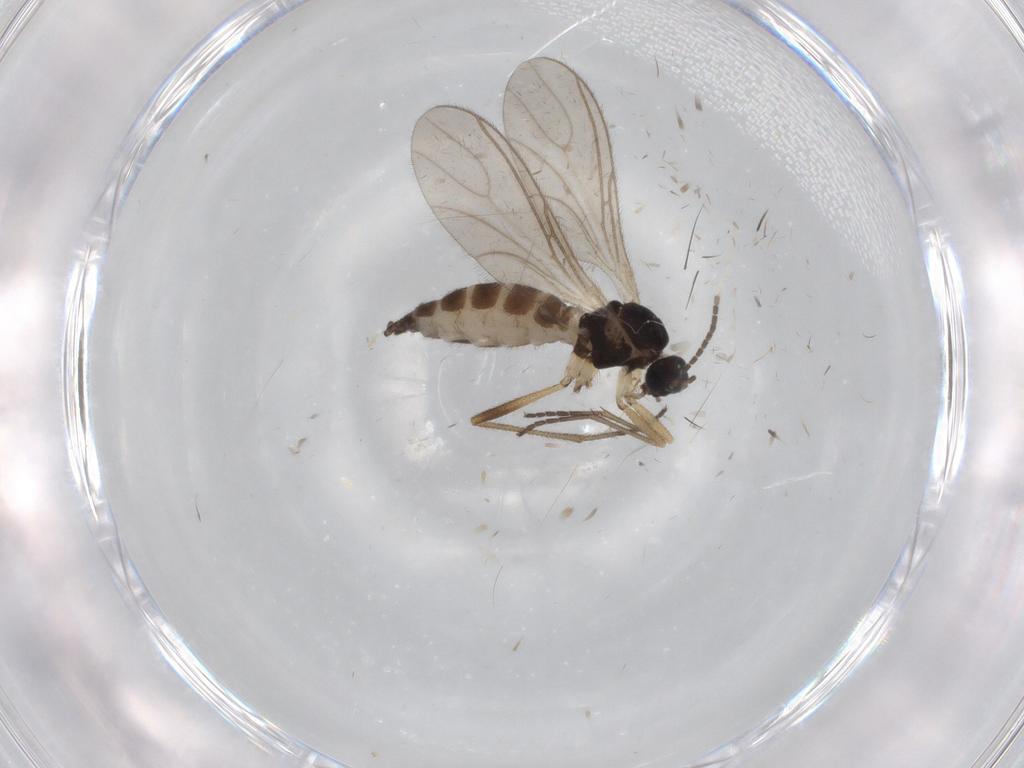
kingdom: Animalia
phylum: Arthropoda
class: Insecta
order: Diptera
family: Sciaridae
